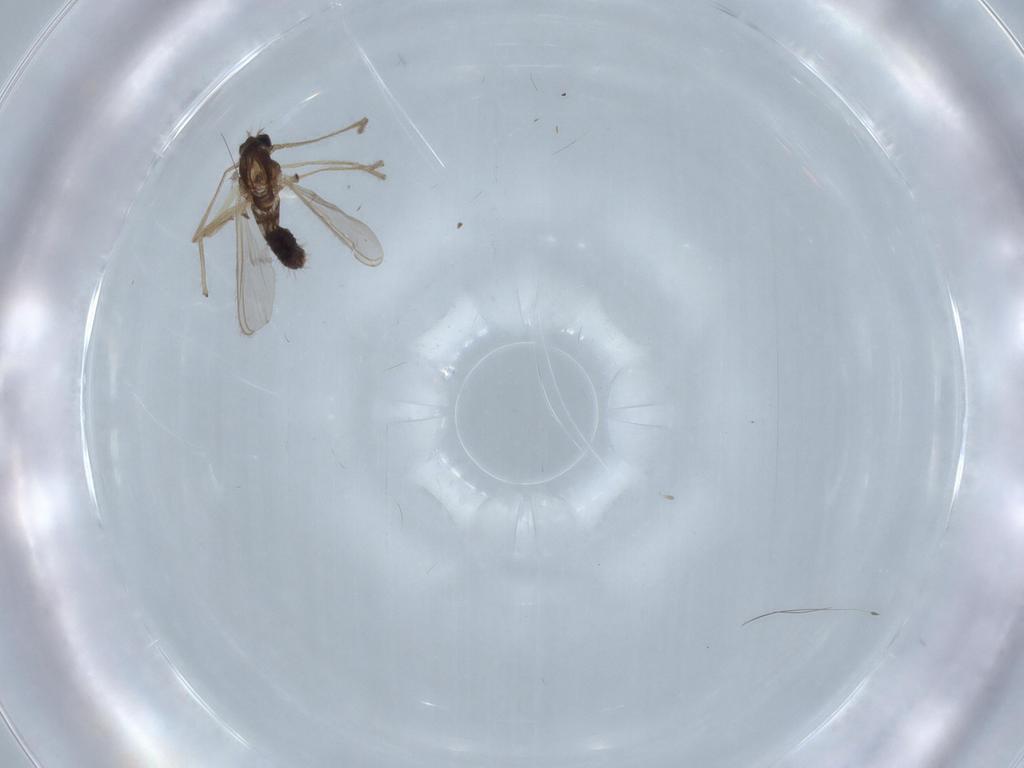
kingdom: Animalia
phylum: Arthropoda
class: Insecta
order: Diptera
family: Chironomidae
